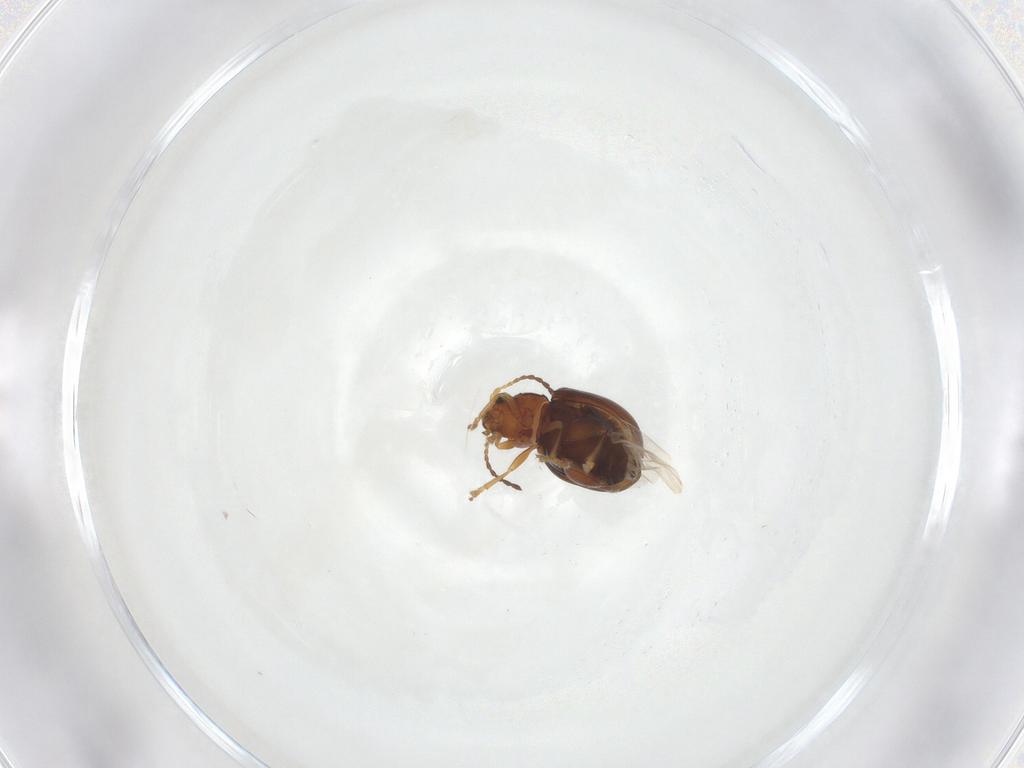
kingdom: Animalia
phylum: Arthropoda
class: Insecta
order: Coleoptera
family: Chrysomelidae
